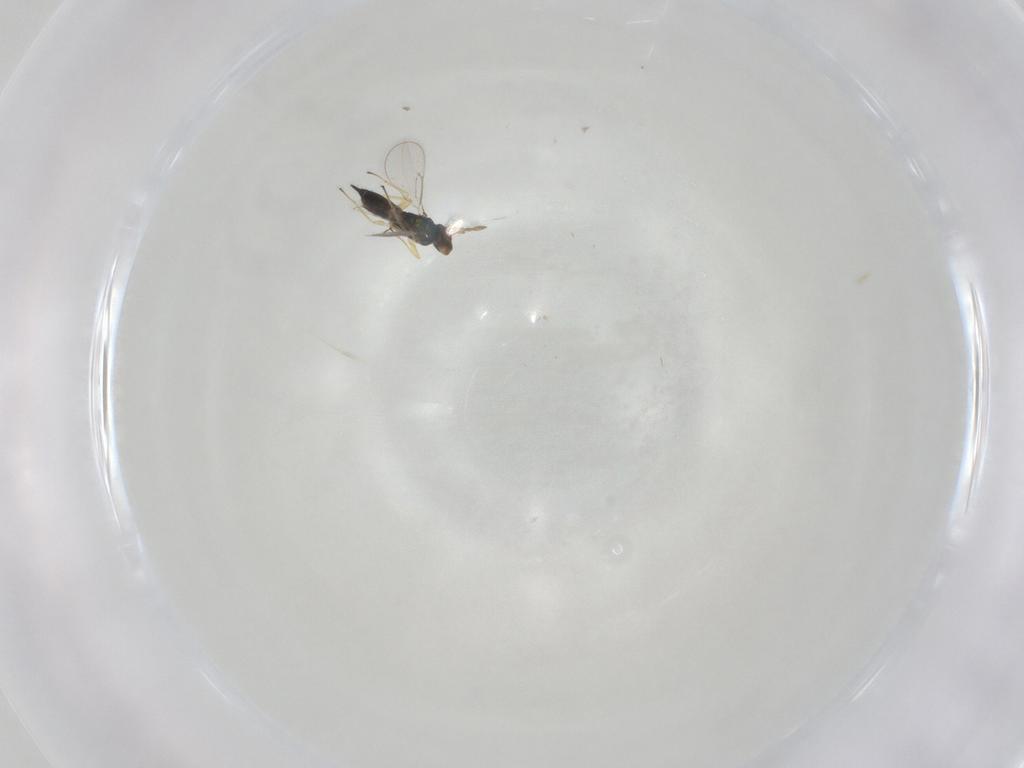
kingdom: Animalia
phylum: Arthropoda
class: Insecta
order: Hymenoptera
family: Eulophidae
